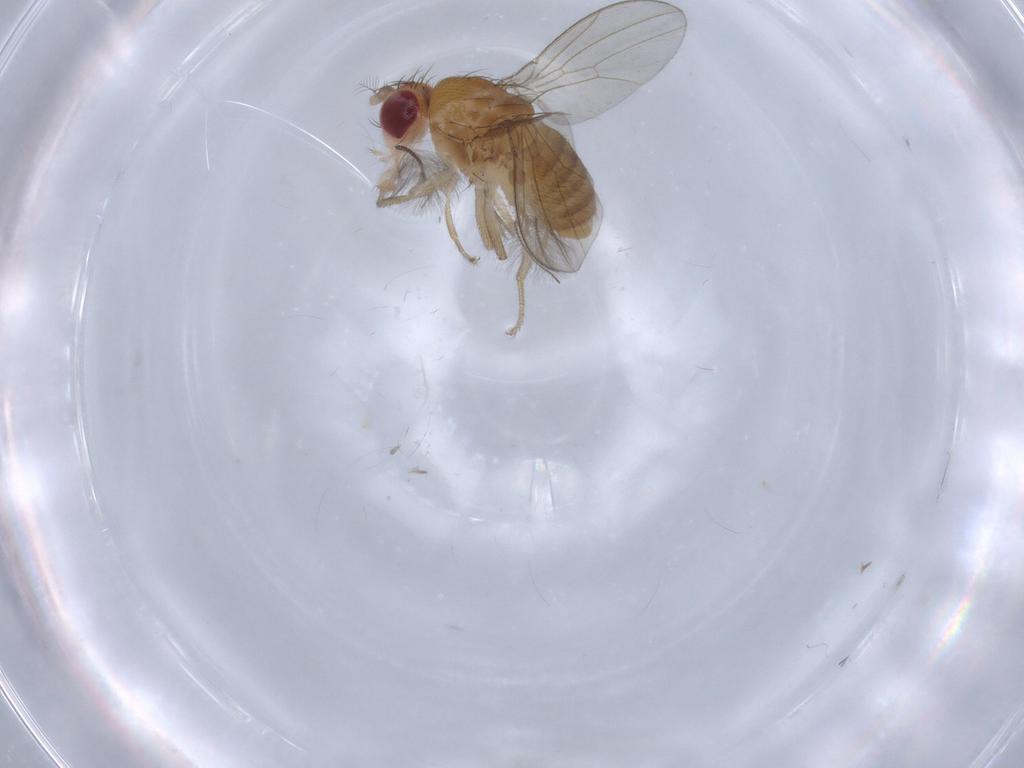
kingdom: Animalia
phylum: Arthropoda
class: Insecta
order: Diptera
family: Drosophilidae
